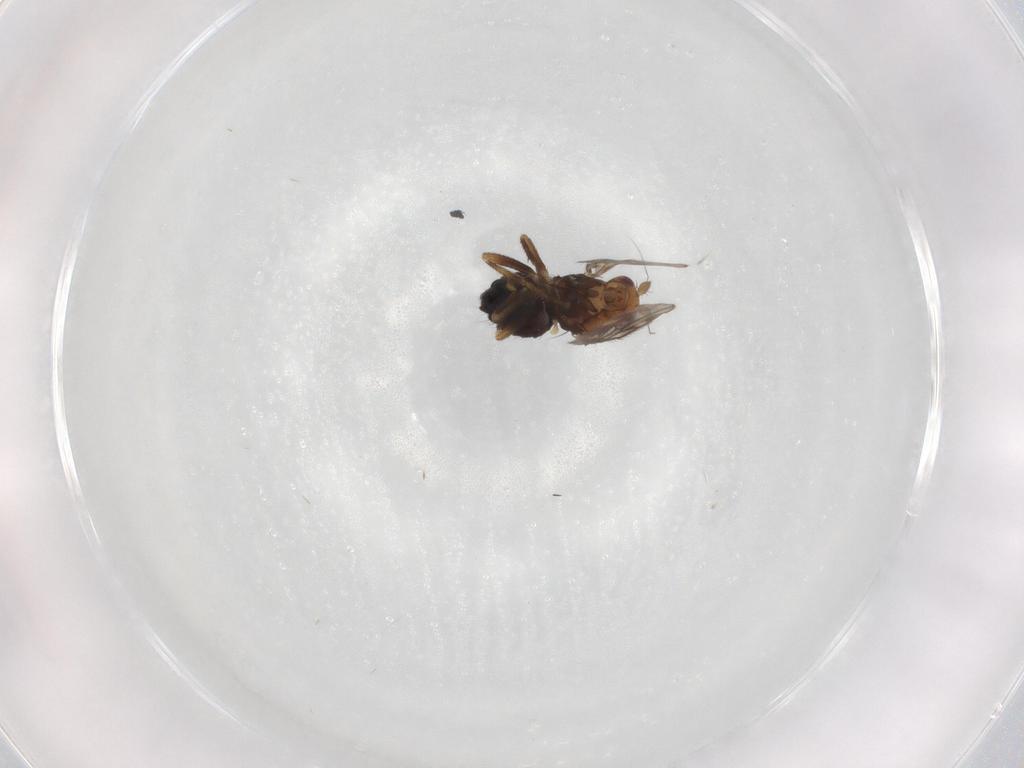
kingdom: Animalia
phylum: Arthropoda
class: Insecta
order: Diptera
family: Sphaeroceridae
